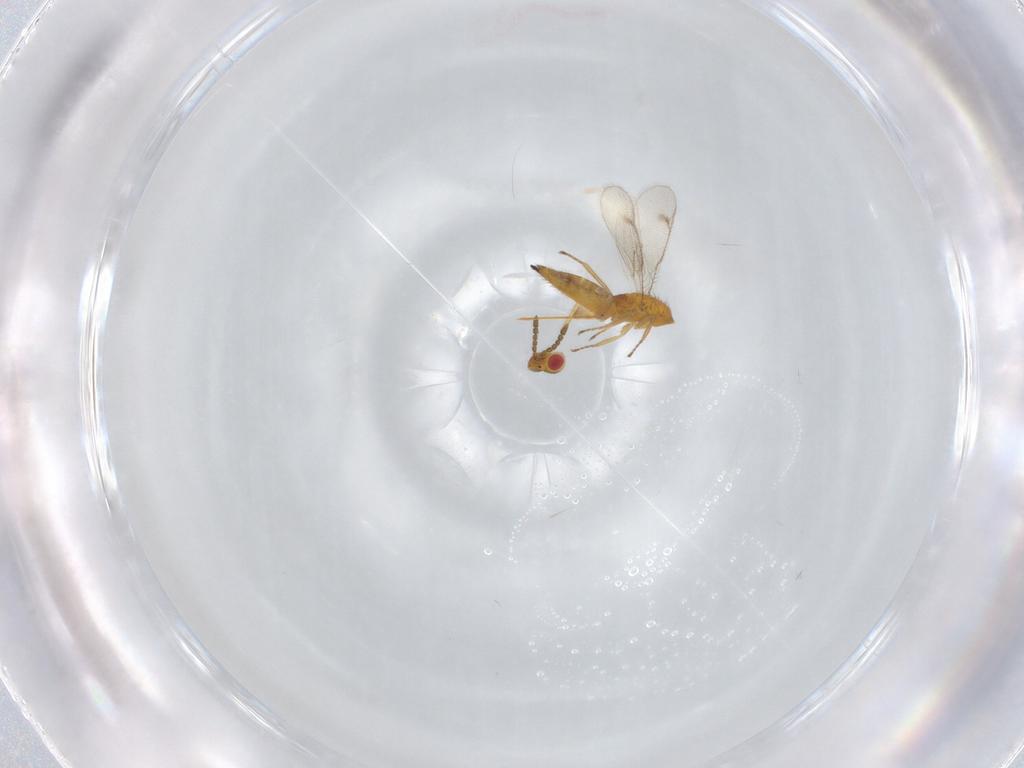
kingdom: Animalia
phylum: Arthropoda
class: Insecta
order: Hymenoptera
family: Eulophidae
